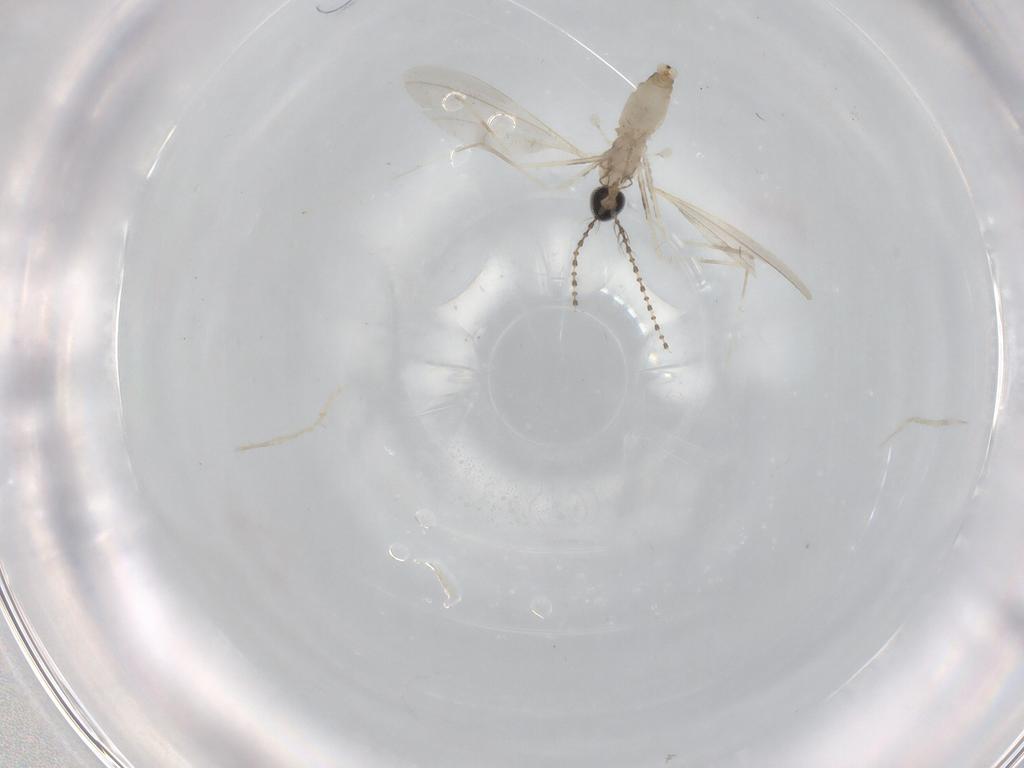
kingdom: Animalia
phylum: Arthropoda
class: Insecta
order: Diptera
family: Cecidomyiidae
